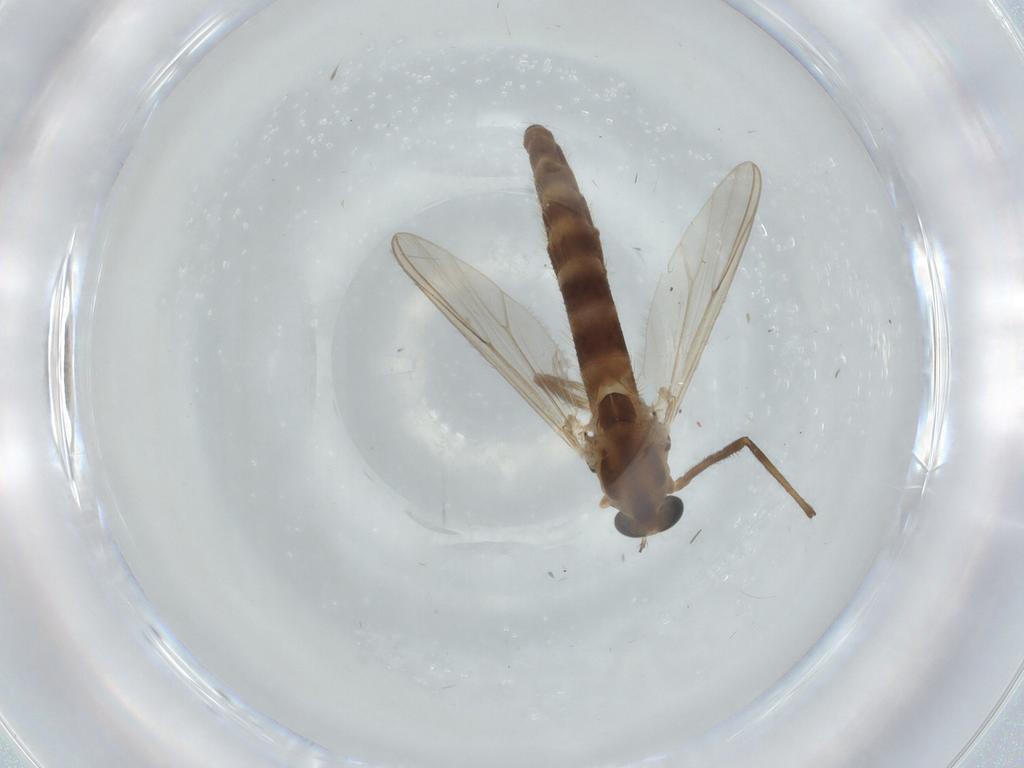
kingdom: Animalia
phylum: Arthropoda
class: Insecta
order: Diptera
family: Chironomidae
